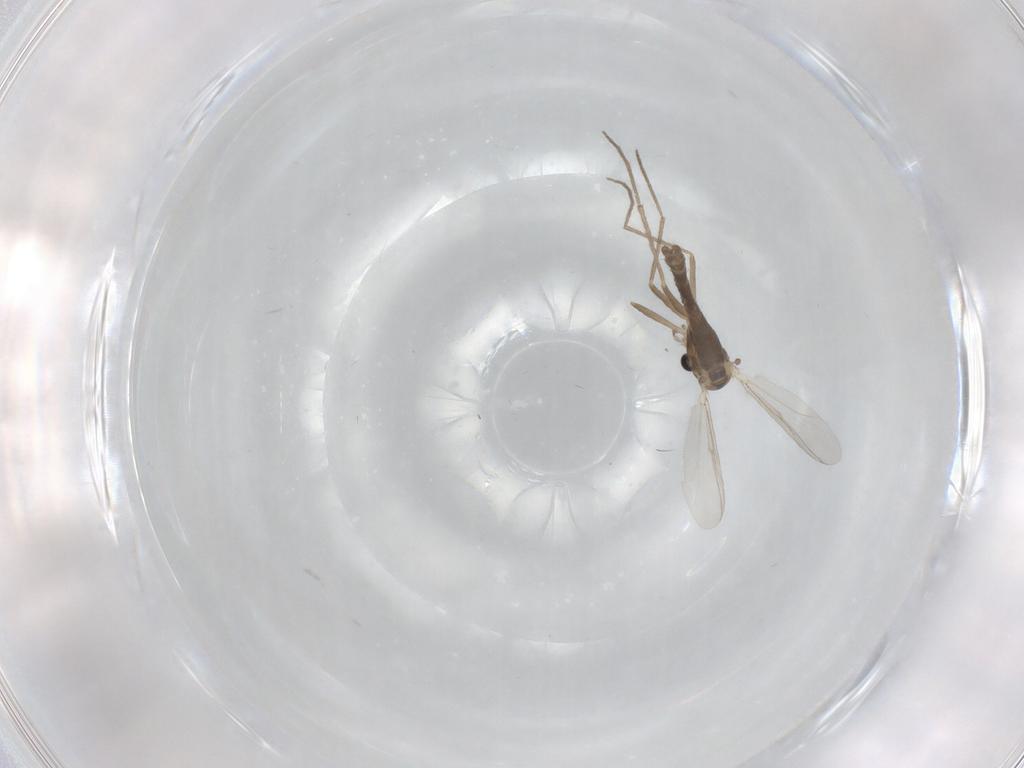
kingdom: Animalia
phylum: Arthropoda
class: Insecta
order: Diptera
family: Chironomidae
